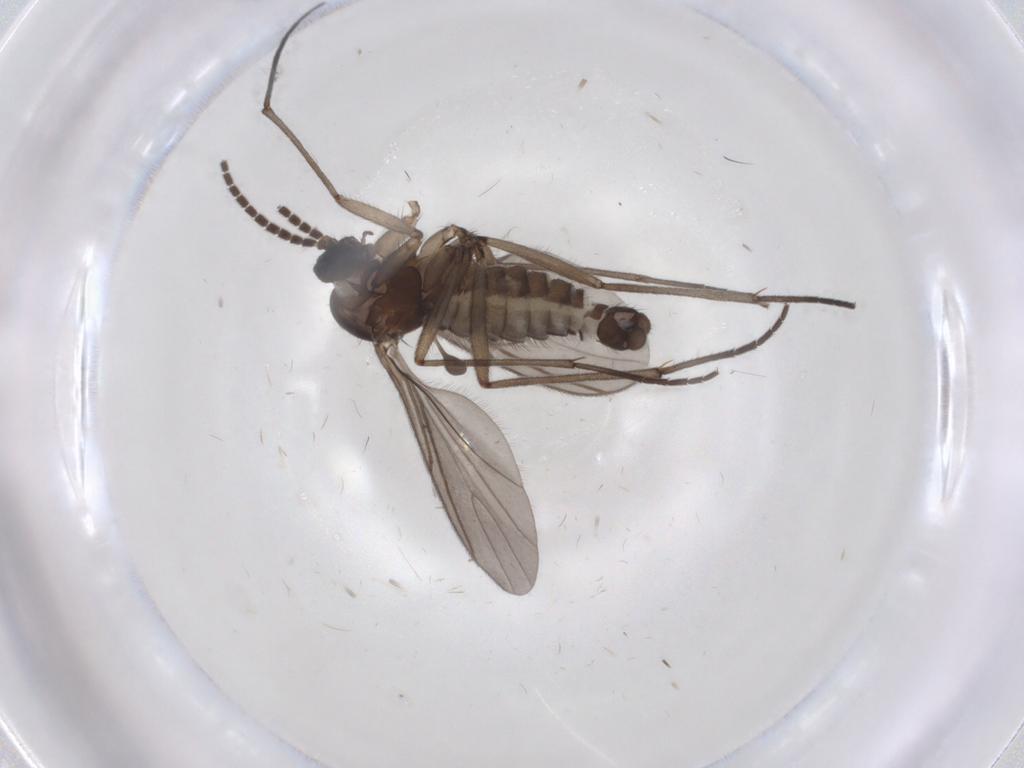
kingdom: Animalia
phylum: Arthropoda
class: Insecta
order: Diptera
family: Sciaridae
